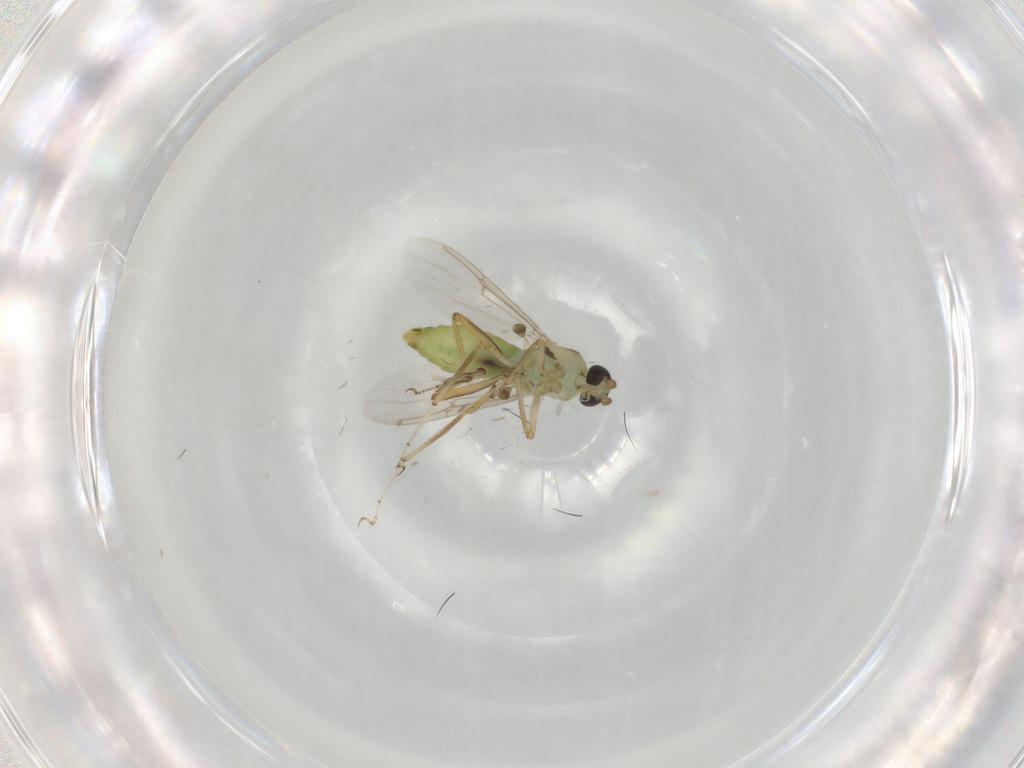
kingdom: Animalia
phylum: Arthropoda
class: Insecta
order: Diptera
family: Ceratopogonidae
